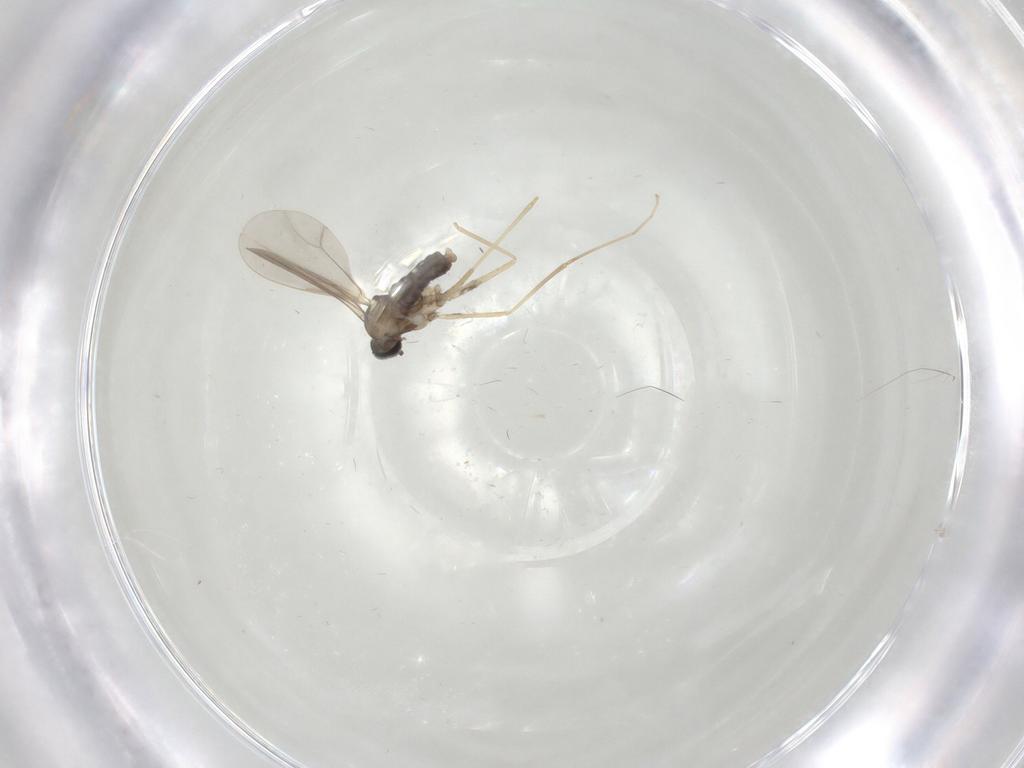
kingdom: Animalia
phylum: Arthropoda
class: Insecta
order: Diptera
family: Cecidomyiidae
